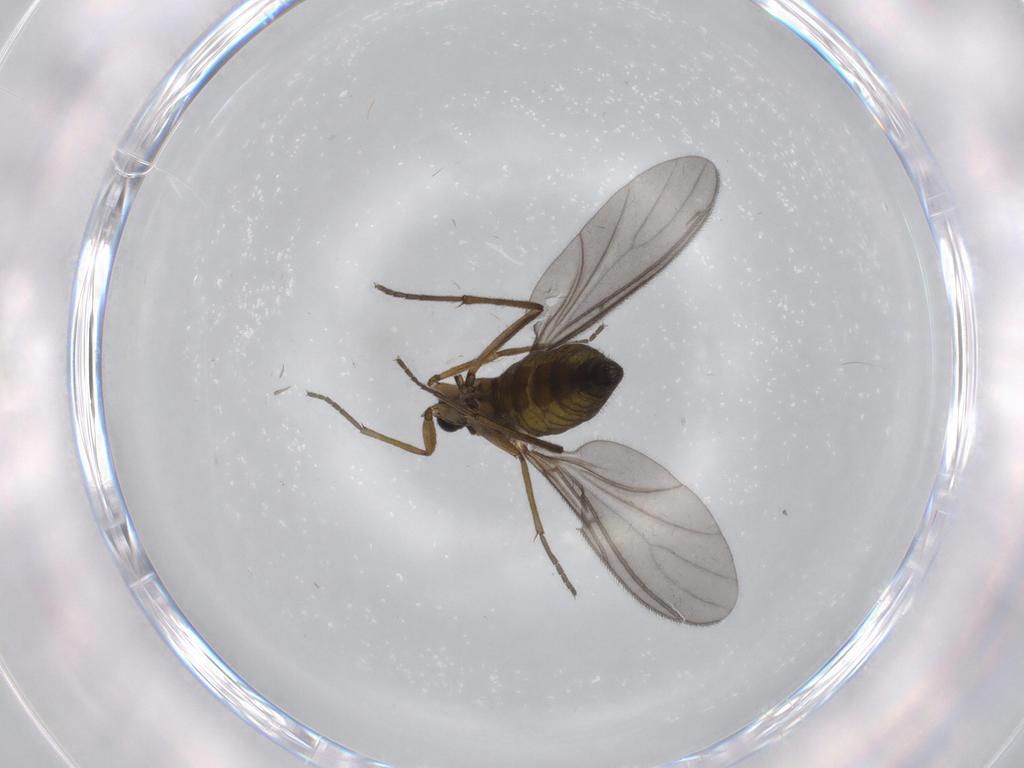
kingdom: Animalia
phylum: Arthropoda
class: Insecta
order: Diptera
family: Sciaridae
